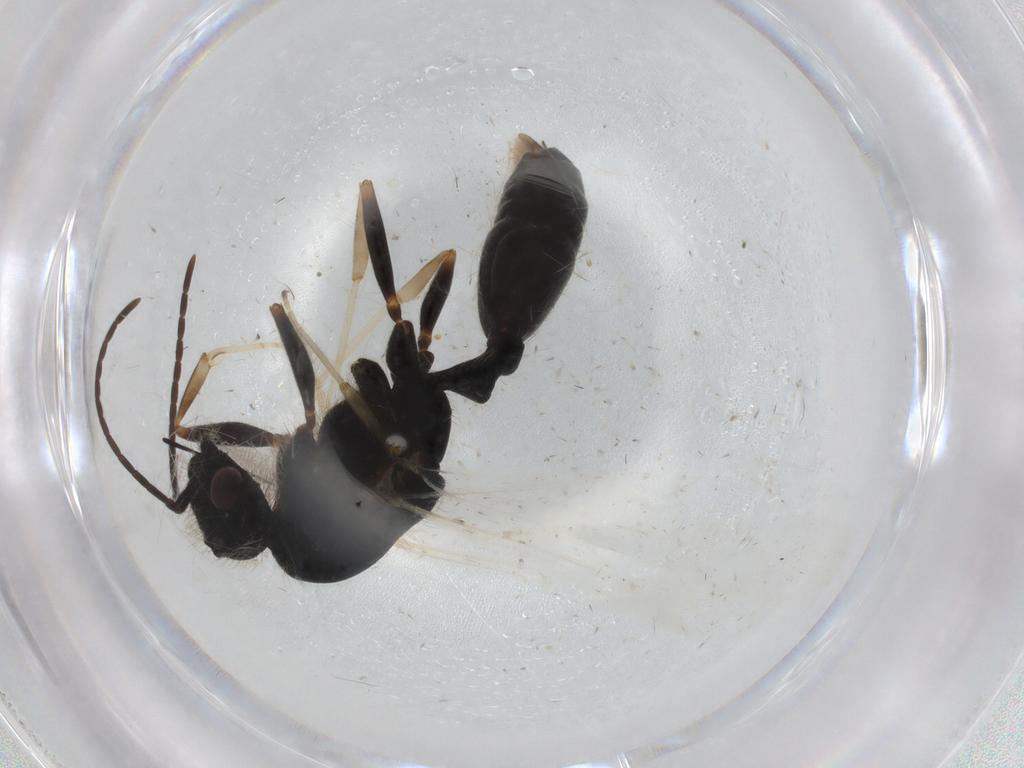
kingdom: Animalia
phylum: Arthropoda
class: Insecta
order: Hymenoptera
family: Formicidae
